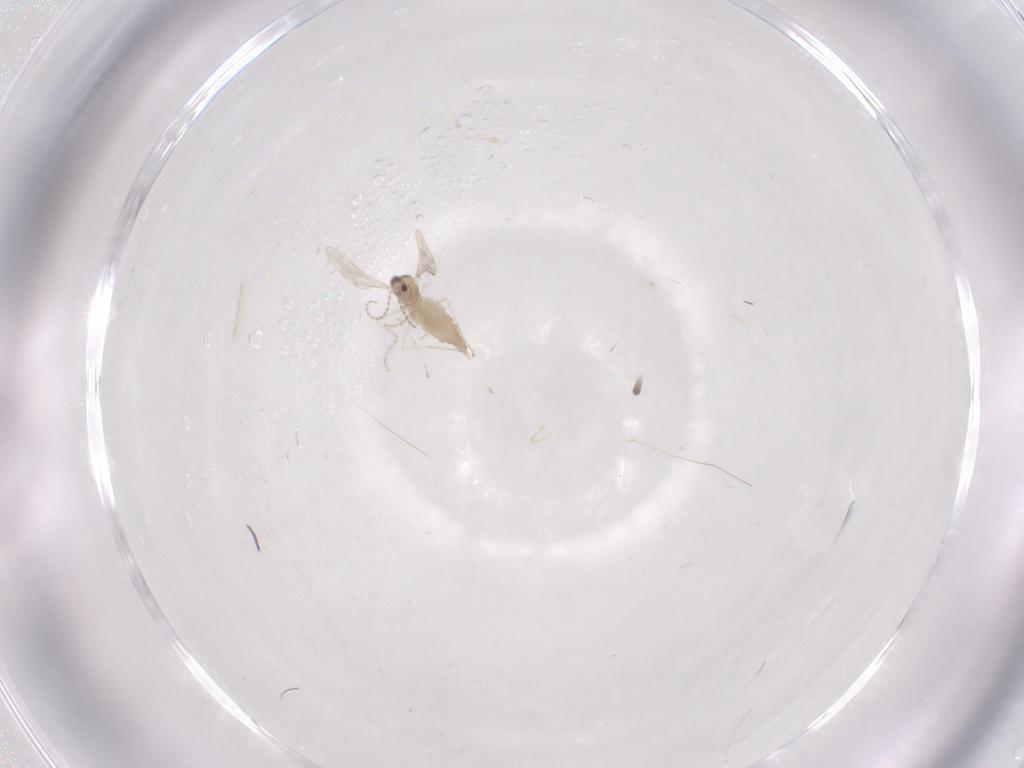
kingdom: Animalia
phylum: Arthropoda
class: Insecta
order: Diptera
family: Cecidomyiidae
